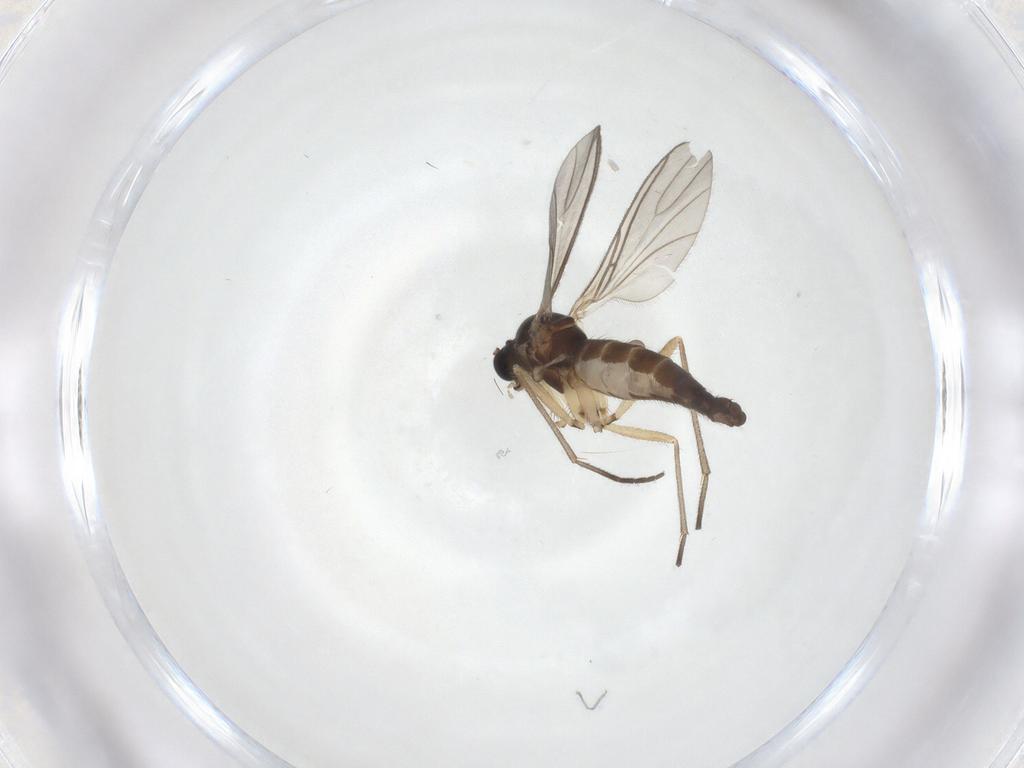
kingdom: Animalia
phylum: Arthropoda
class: Insecta
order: Diptera
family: Sciaridae
